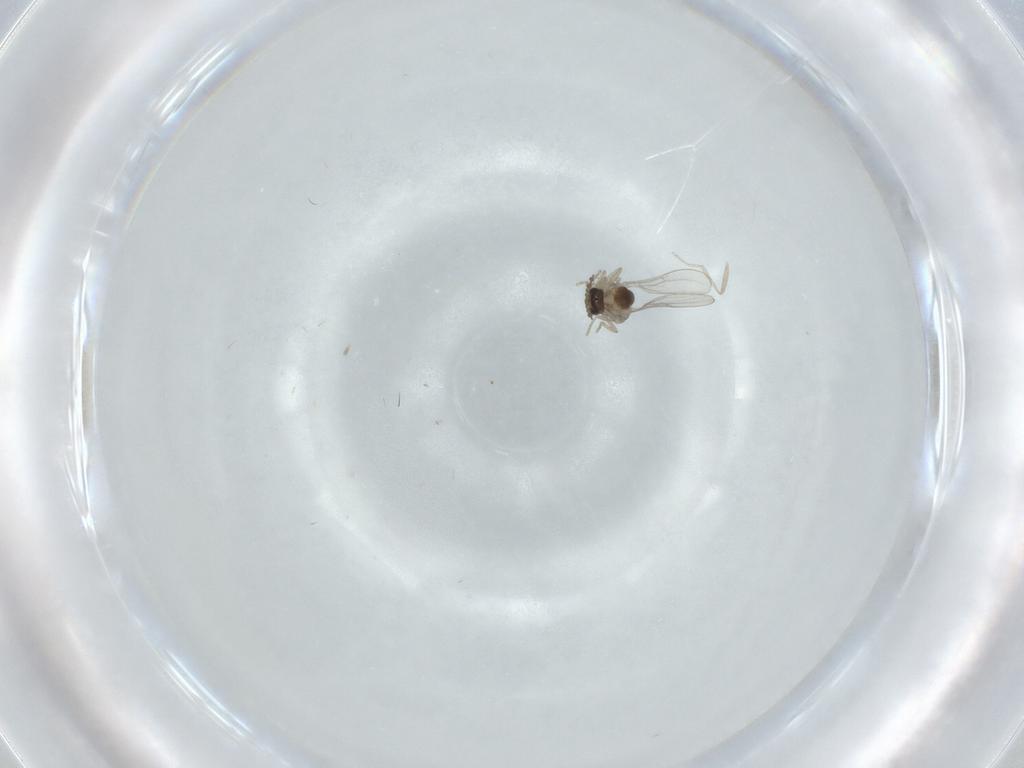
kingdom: Animalia
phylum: Arthropoda
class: Insecta
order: Diptera
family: Cecidomyiidae
